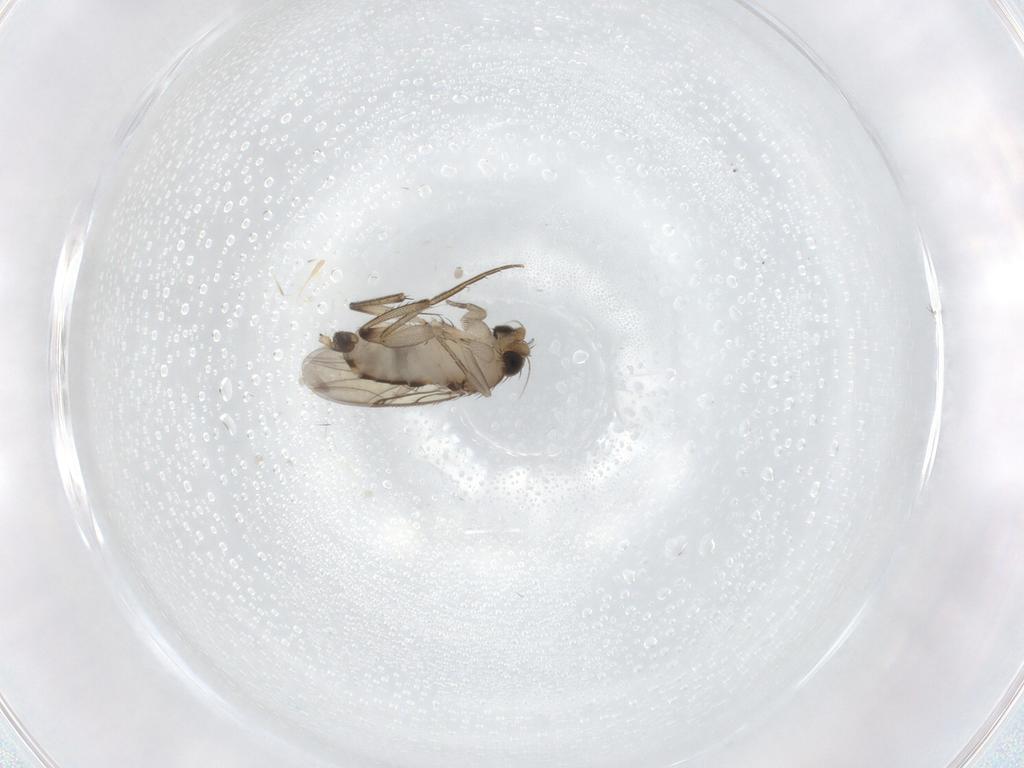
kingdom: Animalia
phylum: Arthropoda
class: Insecta
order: Diptera
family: Phoridae
